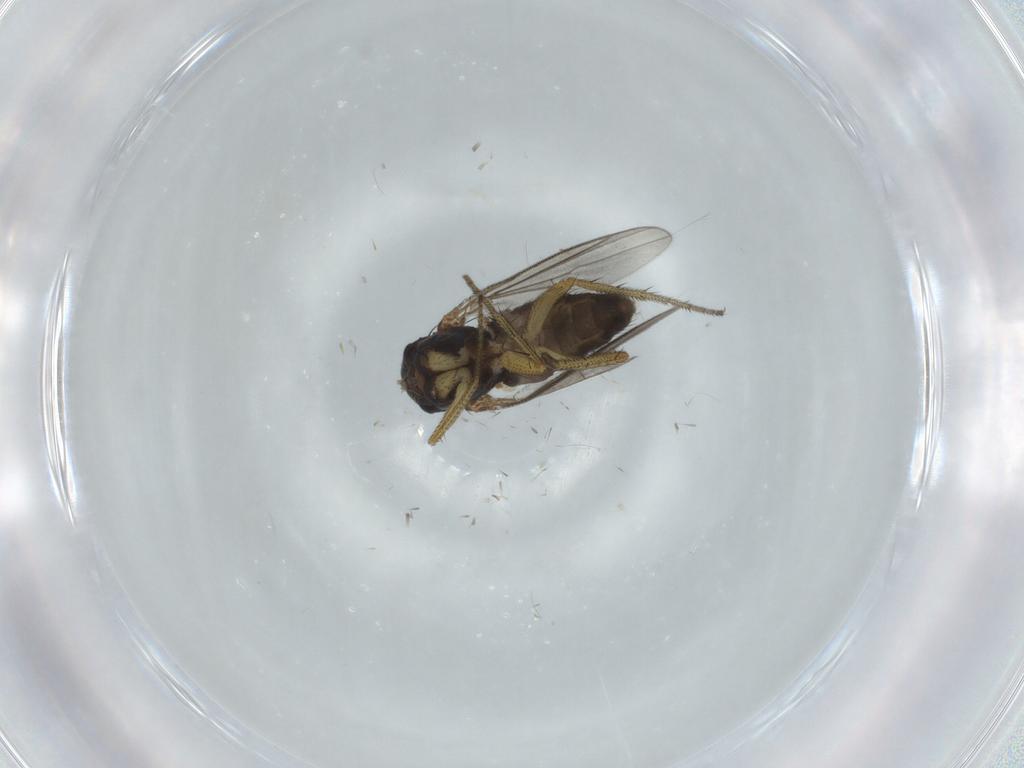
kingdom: Animalia
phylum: Arthropoda
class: Insecta
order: Diptera
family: Dolichopodidae
